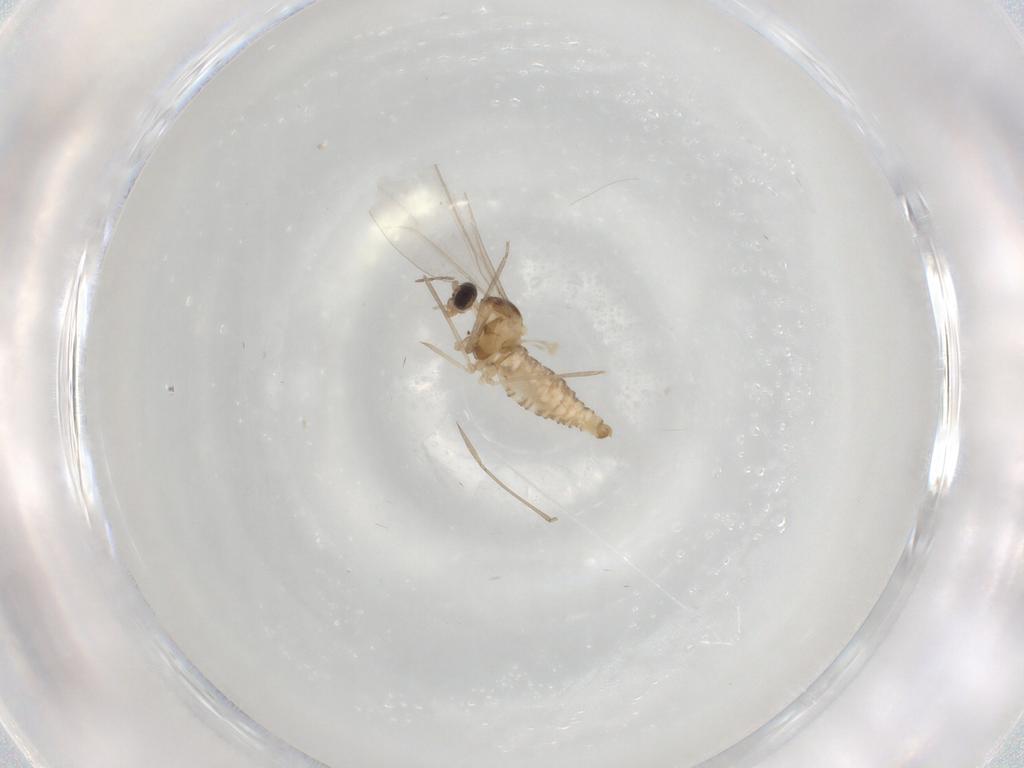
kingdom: Animalia
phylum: Arthropoda
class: Insecta
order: Diptera
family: Cecidomyiidae
